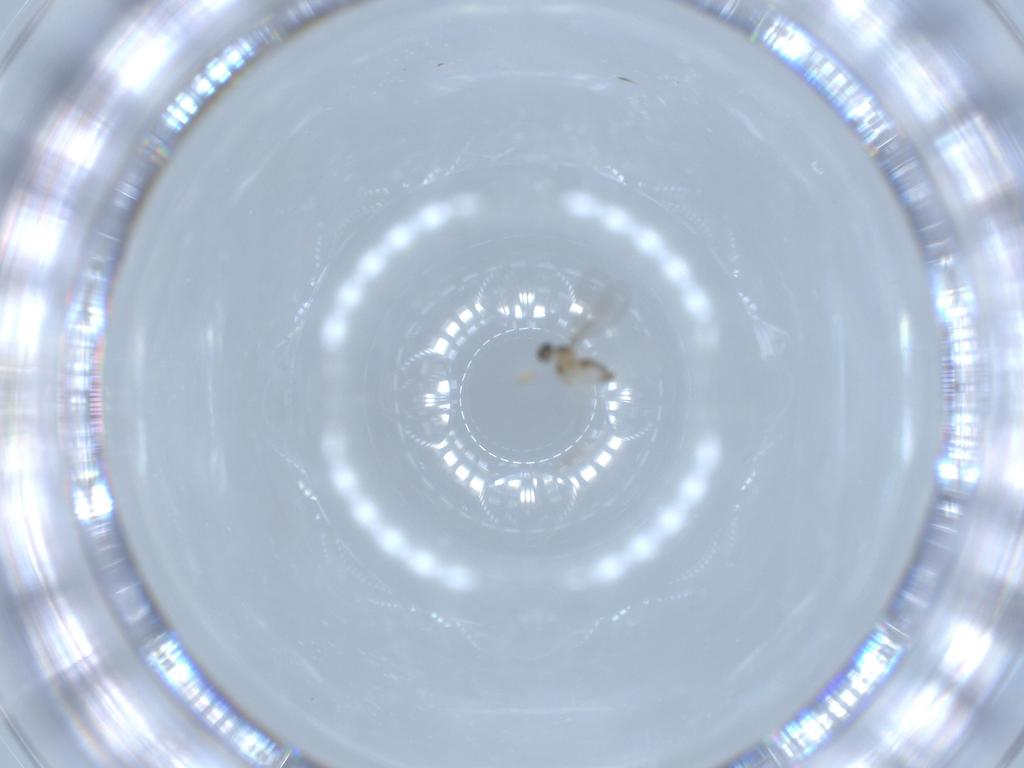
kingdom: Animalia
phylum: Arthropoda
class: Insecta
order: Diptera
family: Cecidomyiidae
